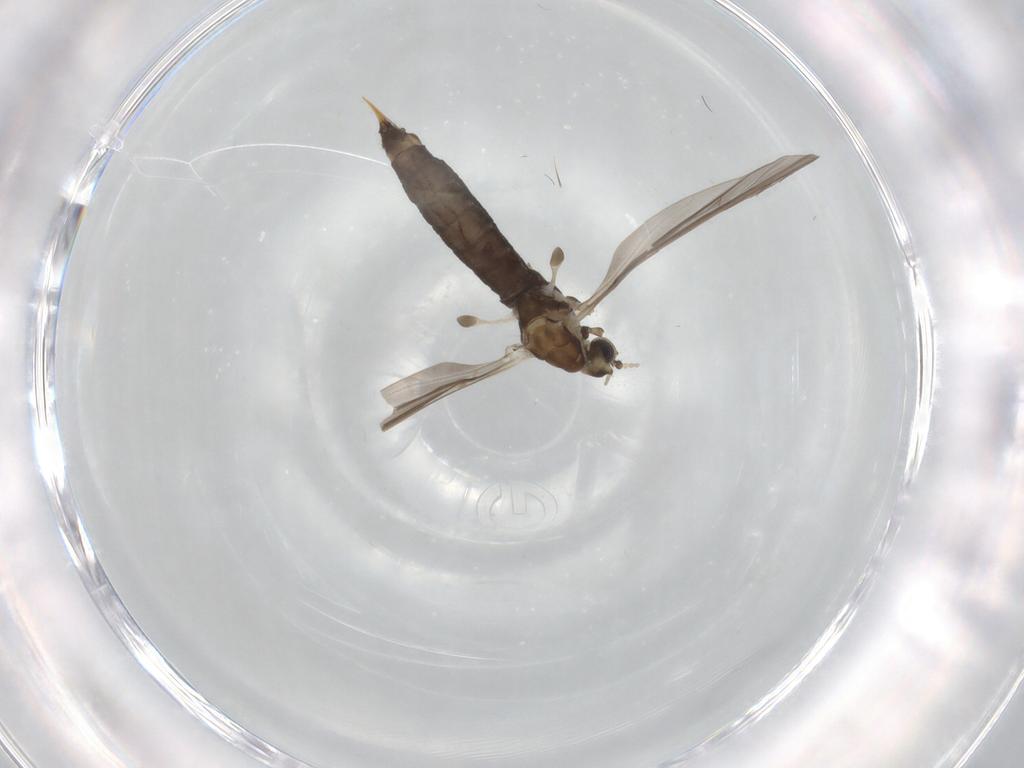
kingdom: Animalia
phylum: Arthropoda
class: Insecta
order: Diptera
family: Limoniidae
